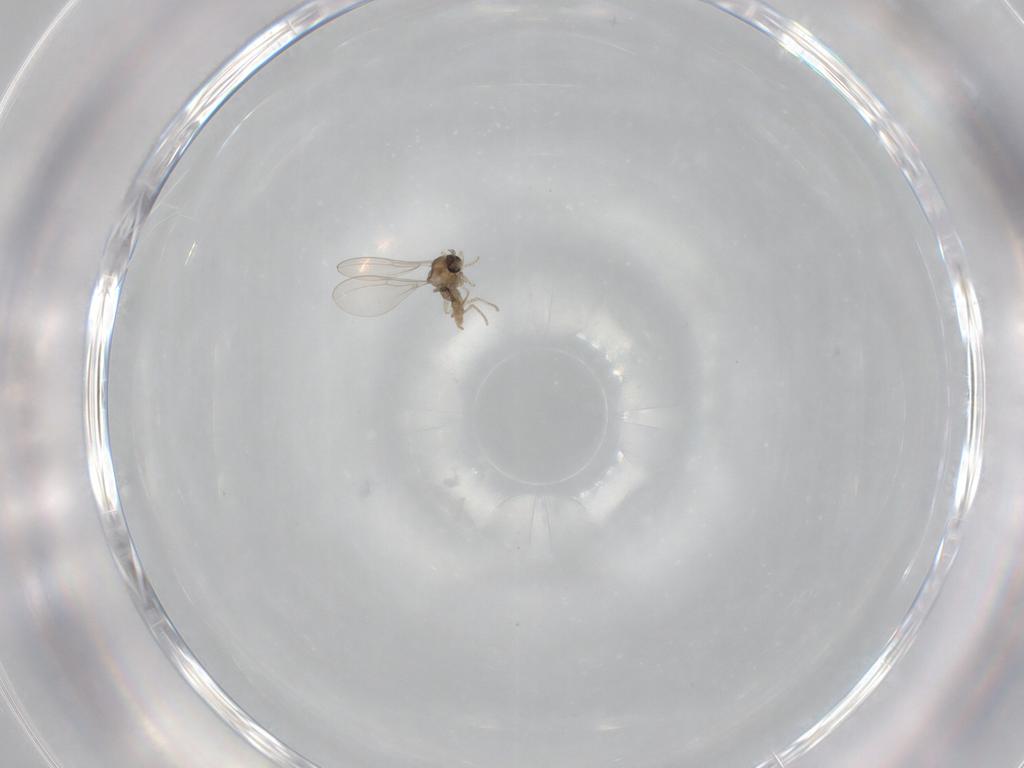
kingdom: Animalia
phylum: Arthropoda
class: Insecta
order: Diptera
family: Cecidomyiidae
